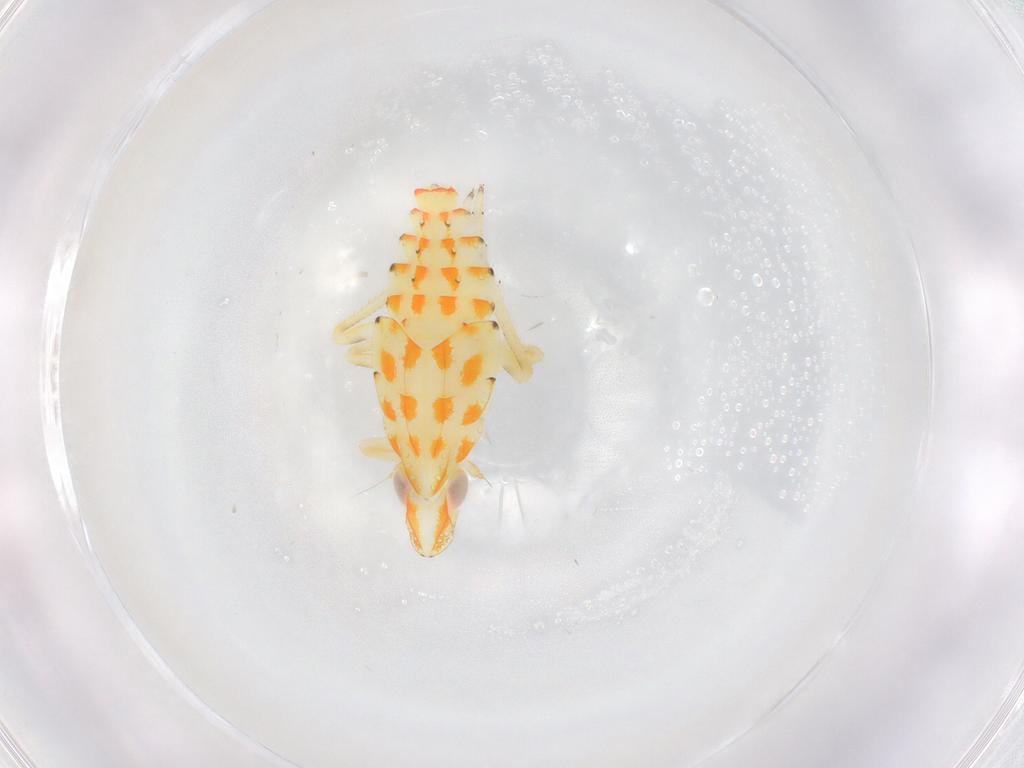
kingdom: Animalia
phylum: Arthropoda
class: Insecta
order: Hemiptera
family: Tropiduchidae
